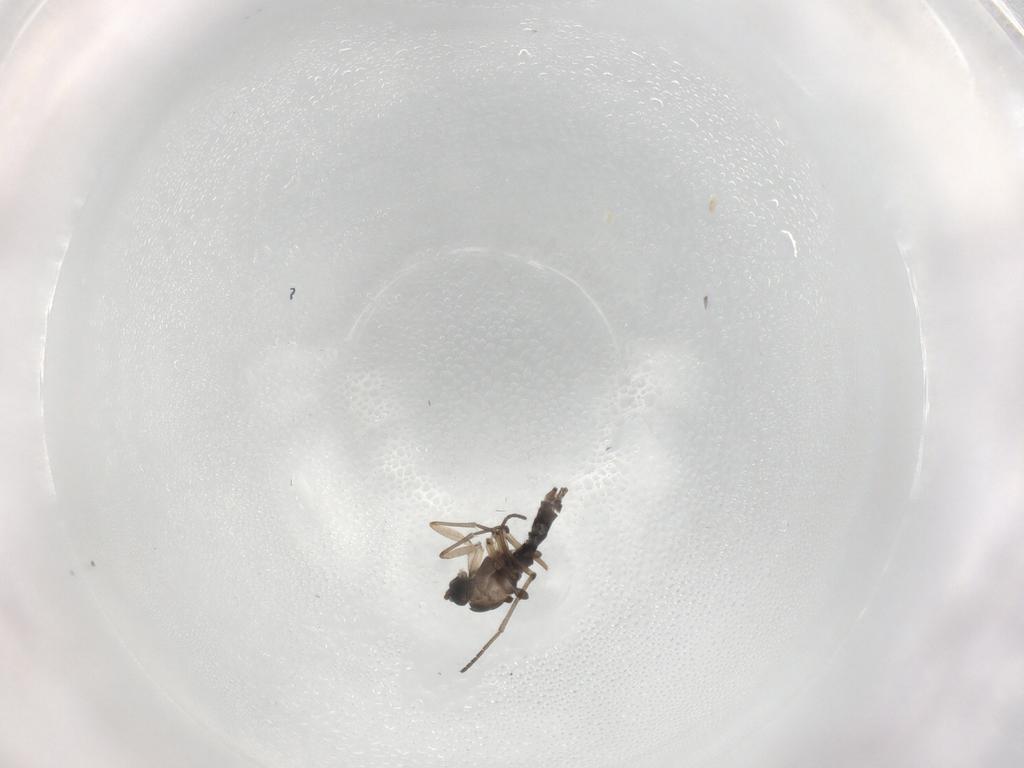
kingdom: Animalia
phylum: Arthropoda
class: Insecta
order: Diptera
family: Sciaridae
